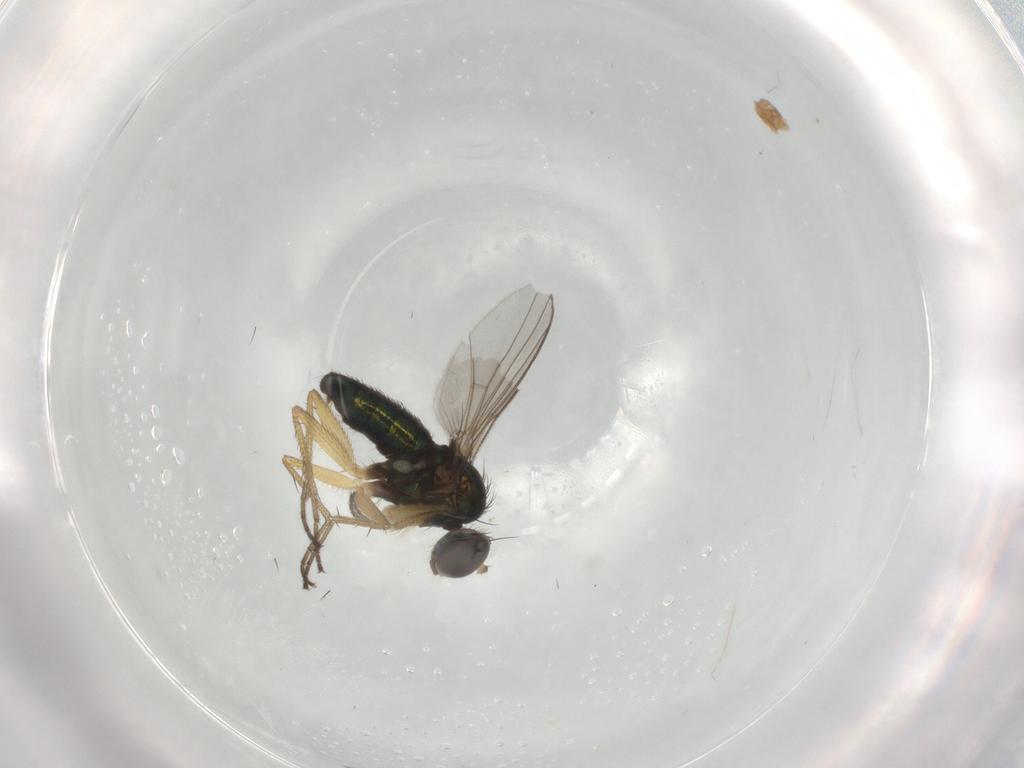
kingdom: Animalia
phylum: Arthropoda
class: Insecta
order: Diptera
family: Dolichopodidae
